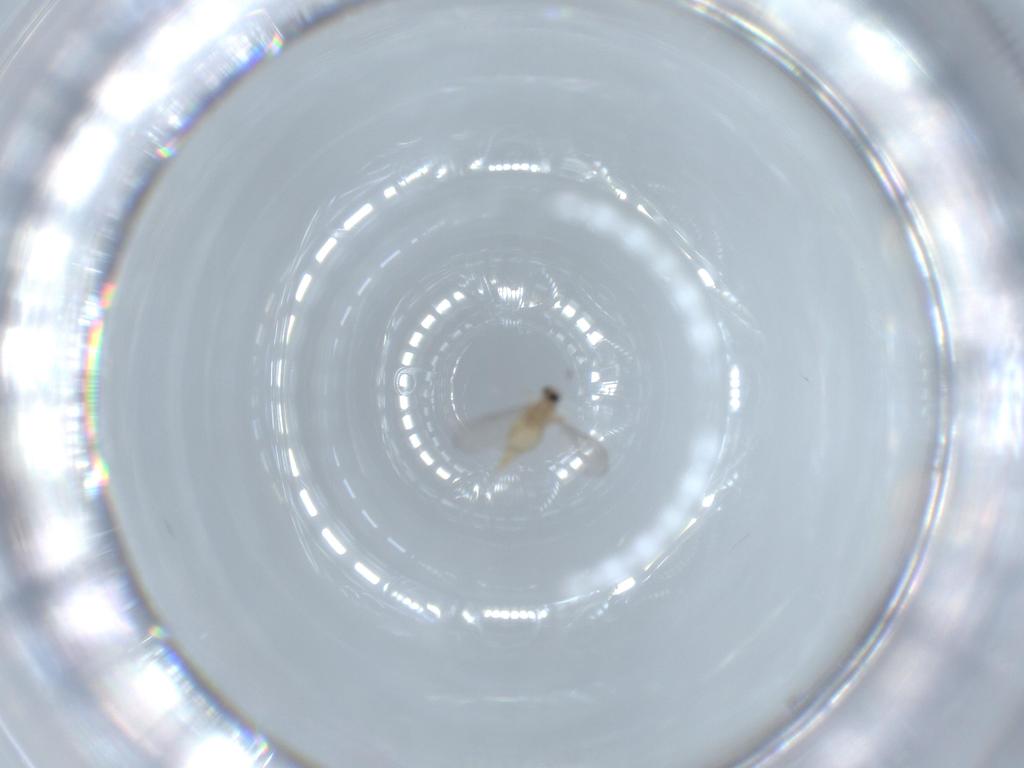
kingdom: Animalia
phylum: Arthropoda
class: Insecta
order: Diptera
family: Cecidomyiidae
